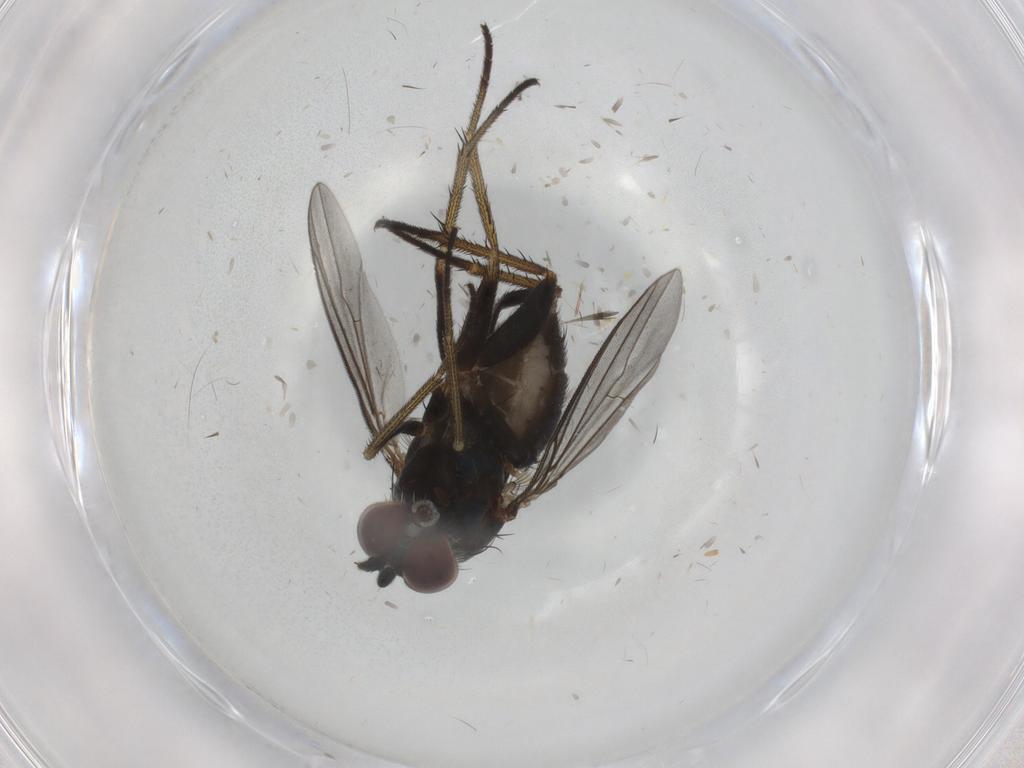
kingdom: Animalia
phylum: Arthropoda
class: Insecta
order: Diptera
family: Dolichopodidae
